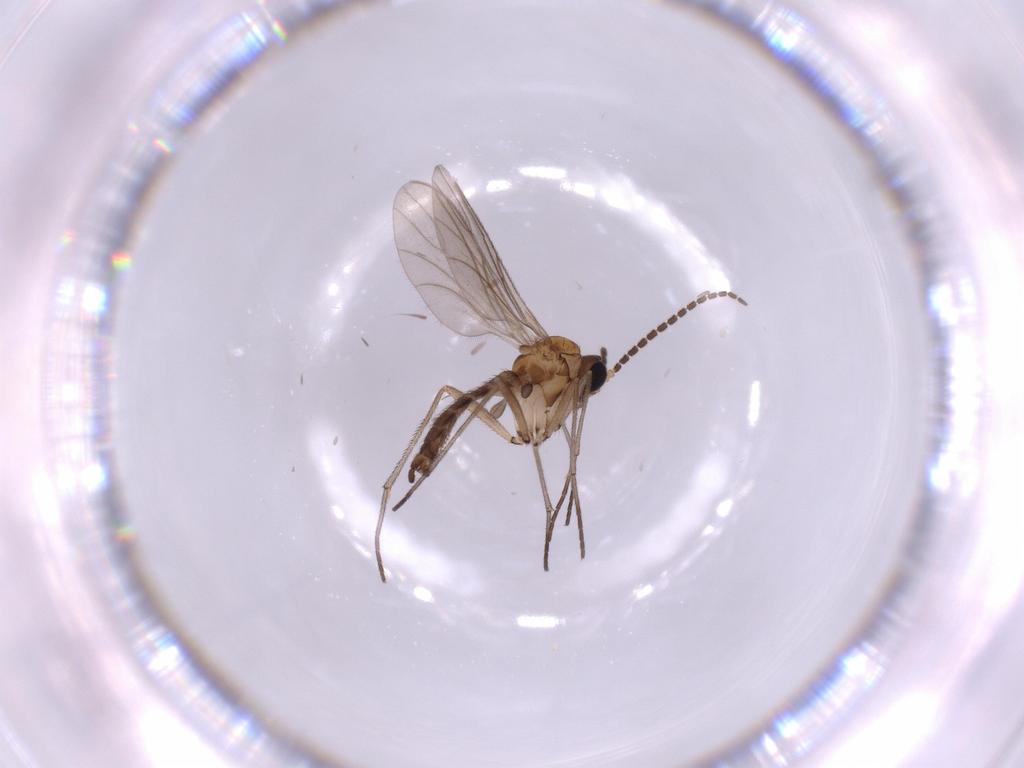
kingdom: Animalia
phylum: Arthropoda
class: Insecta
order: Diptera
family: Sciaridae
